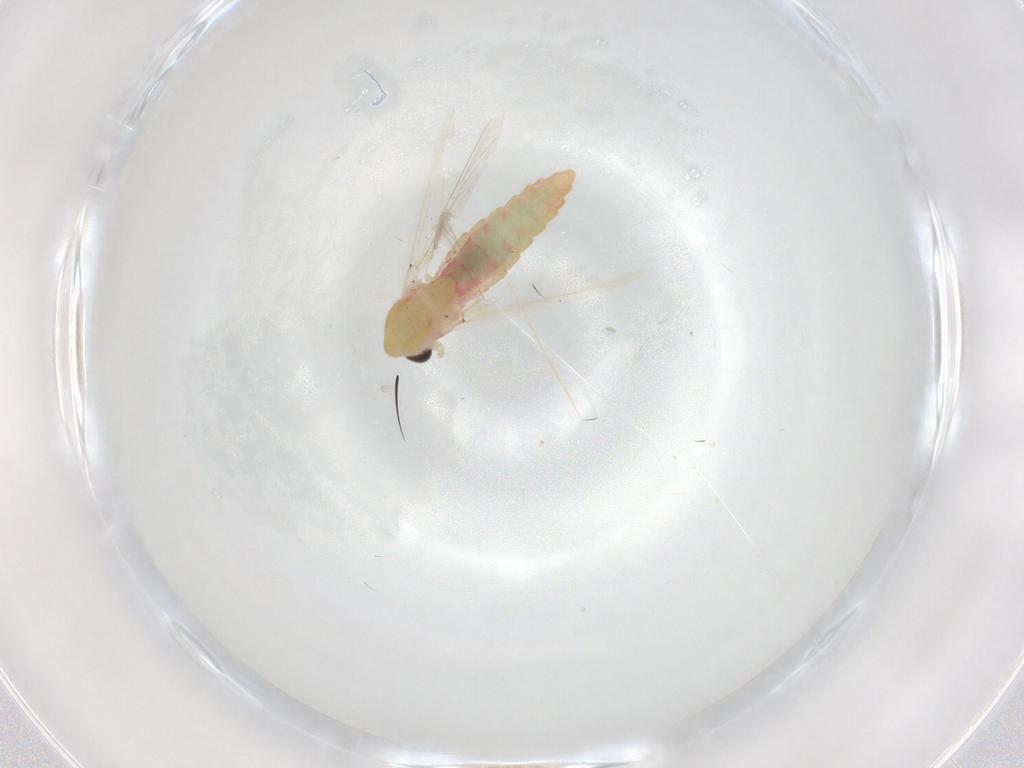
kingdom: Animalia
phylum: Arthropoda
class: Insecta
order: Diptera
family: Chironomidae
